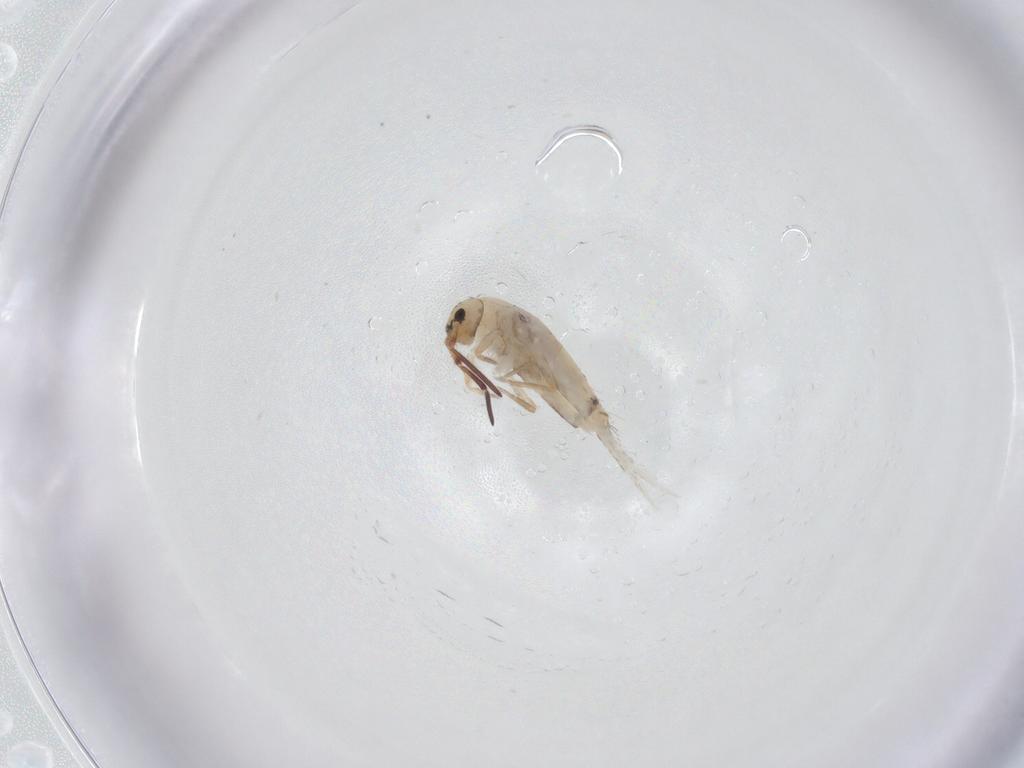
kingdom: Animalia
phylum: Arthropoda
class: Collembola
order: Entomobryomorpha
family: Entomobryidae
